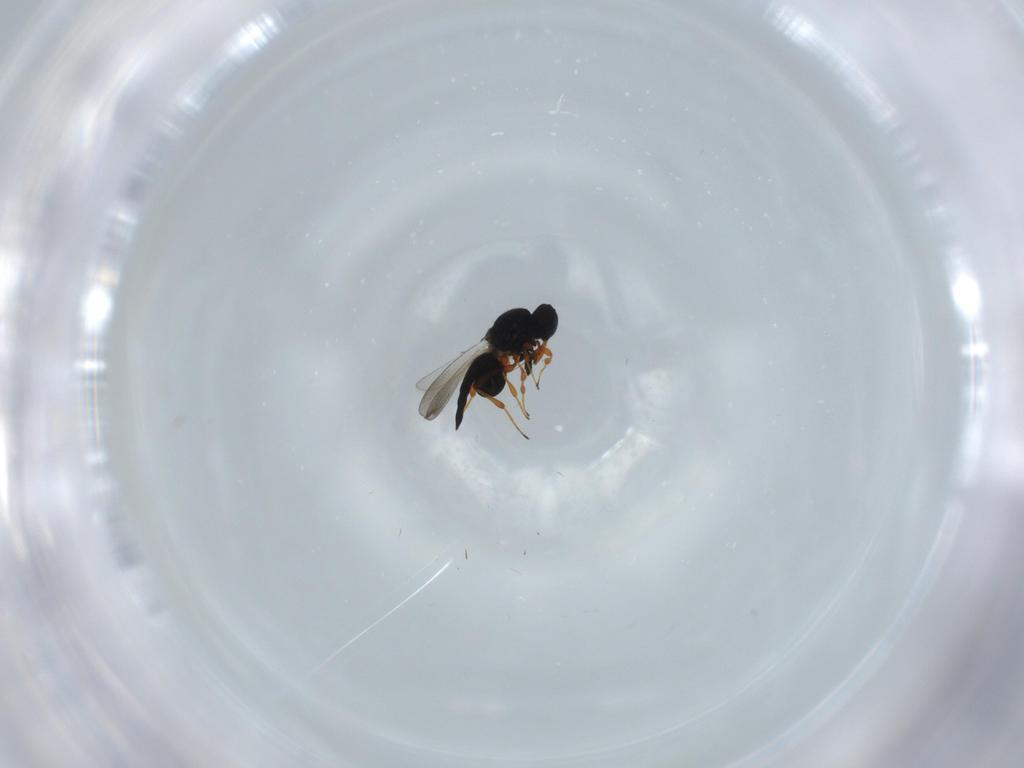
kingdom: Animalia
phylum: Arthropoda
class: Insecta
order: Hymenoptera
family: Platygastridae
